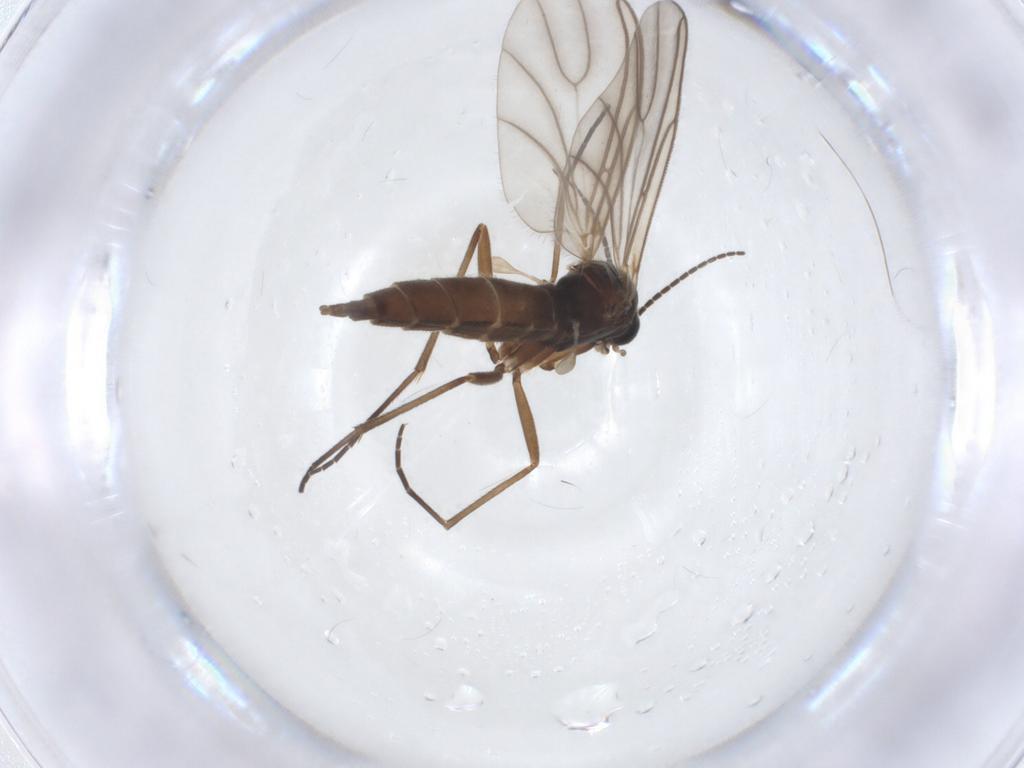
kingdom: Animalia
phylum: Arthropoda
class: Insecta
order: Diptera
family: Sciaridae
